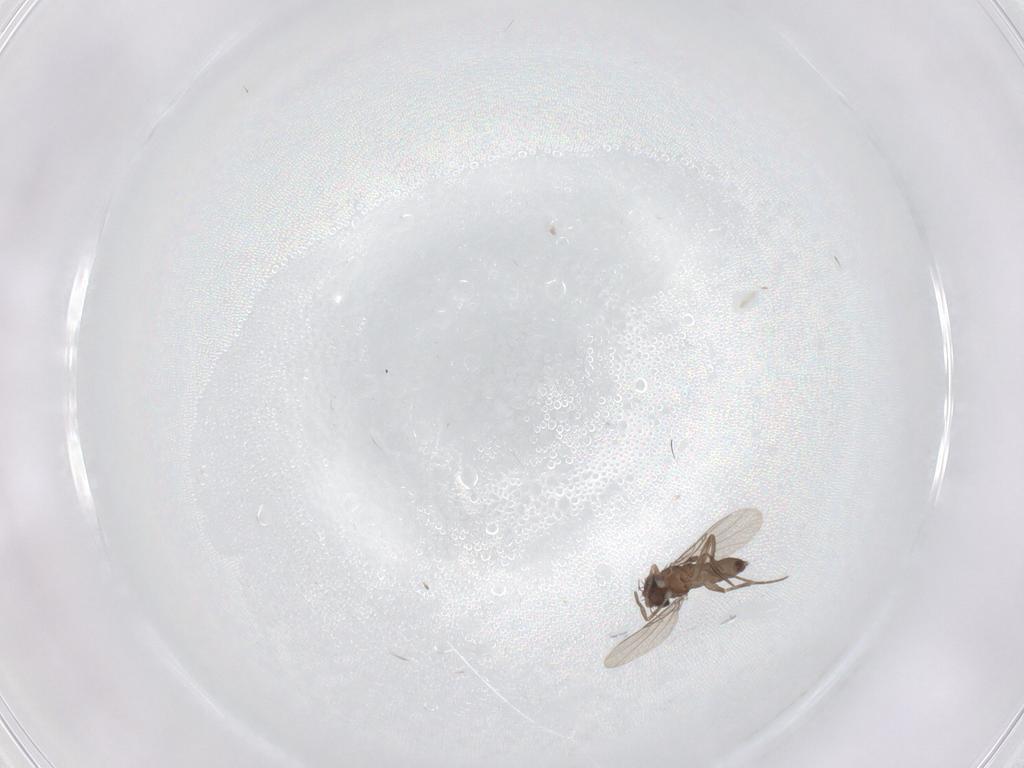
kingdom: Animalia
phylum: Arthropoda
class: Insecta
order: Diptera
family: Phoridae
